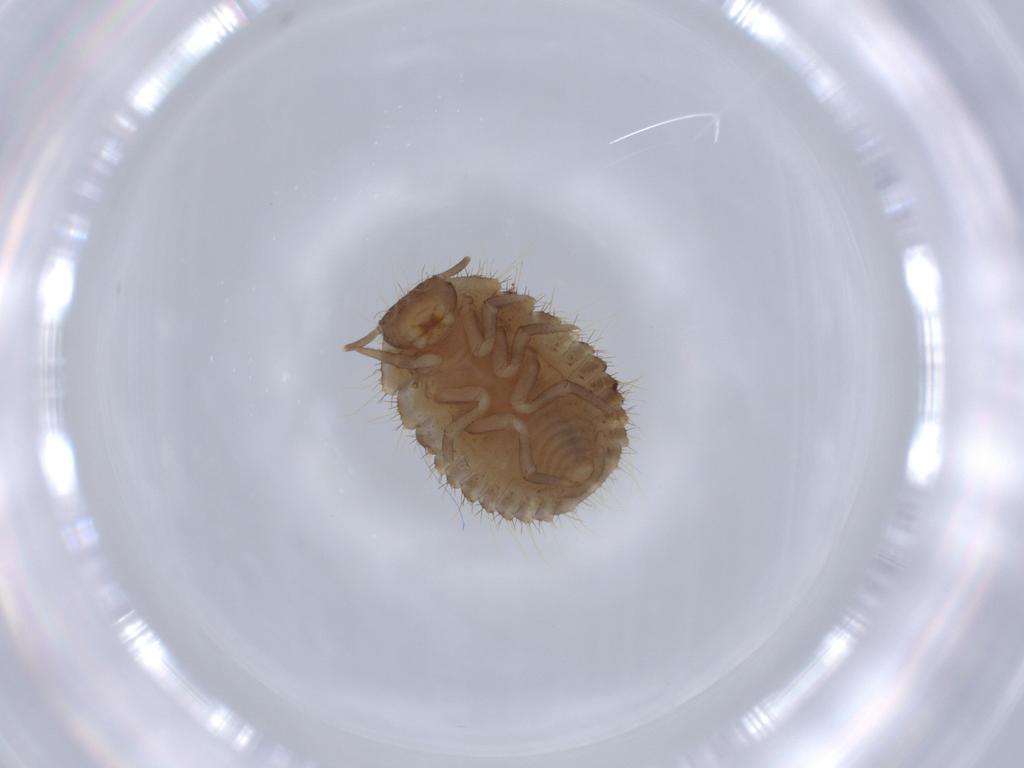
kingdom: Animalia
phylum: Arthropoda
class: Insecta
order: Coleoptera
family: Endomychidae
